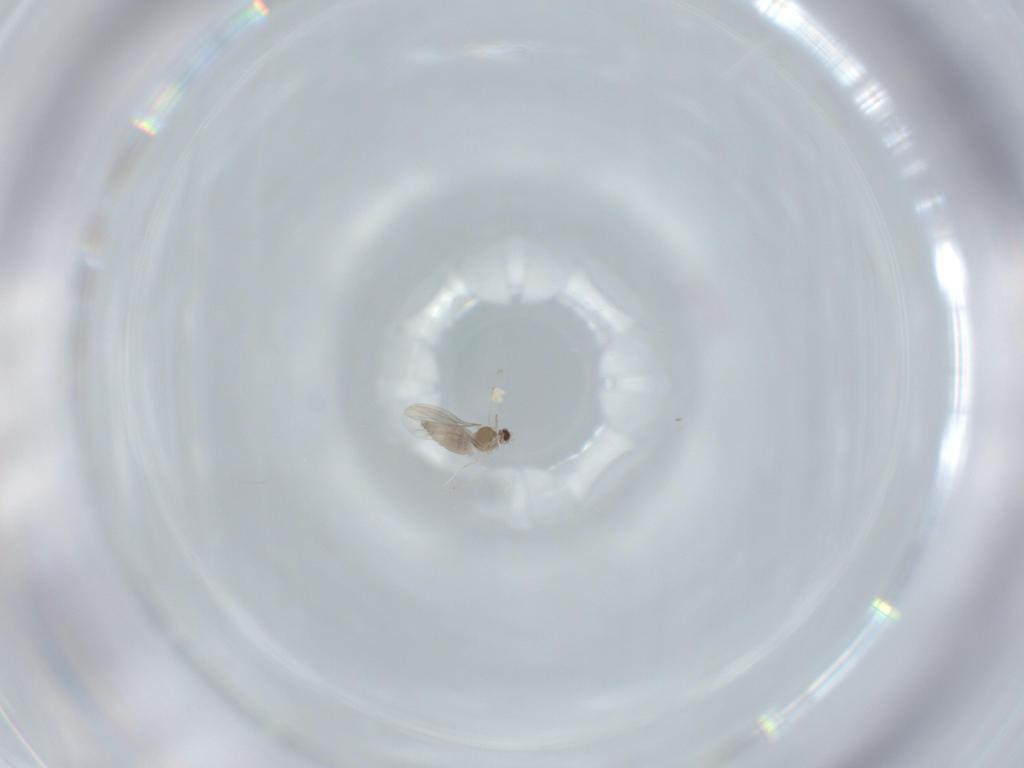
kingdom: Animalia
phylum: Arthropoda
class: Insecta
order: Diptera
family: Cecidomyiidae
